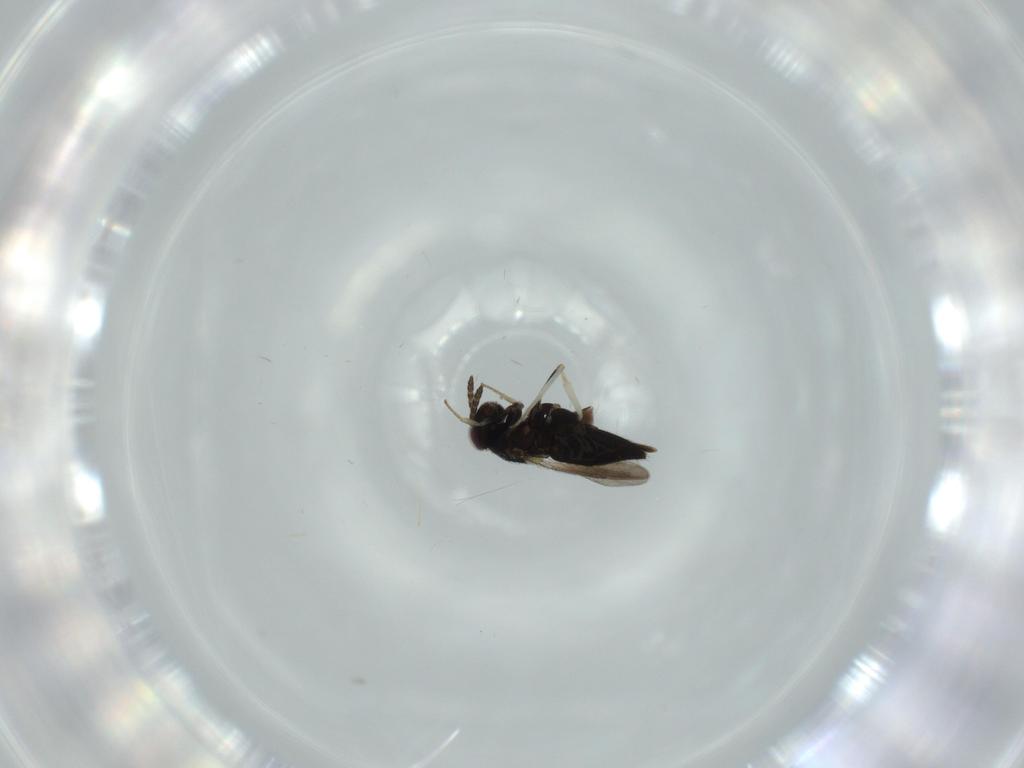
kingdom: Animalia
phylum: Arthropoda
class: Insecta
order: Hymenoptera
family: Aphelinidae
